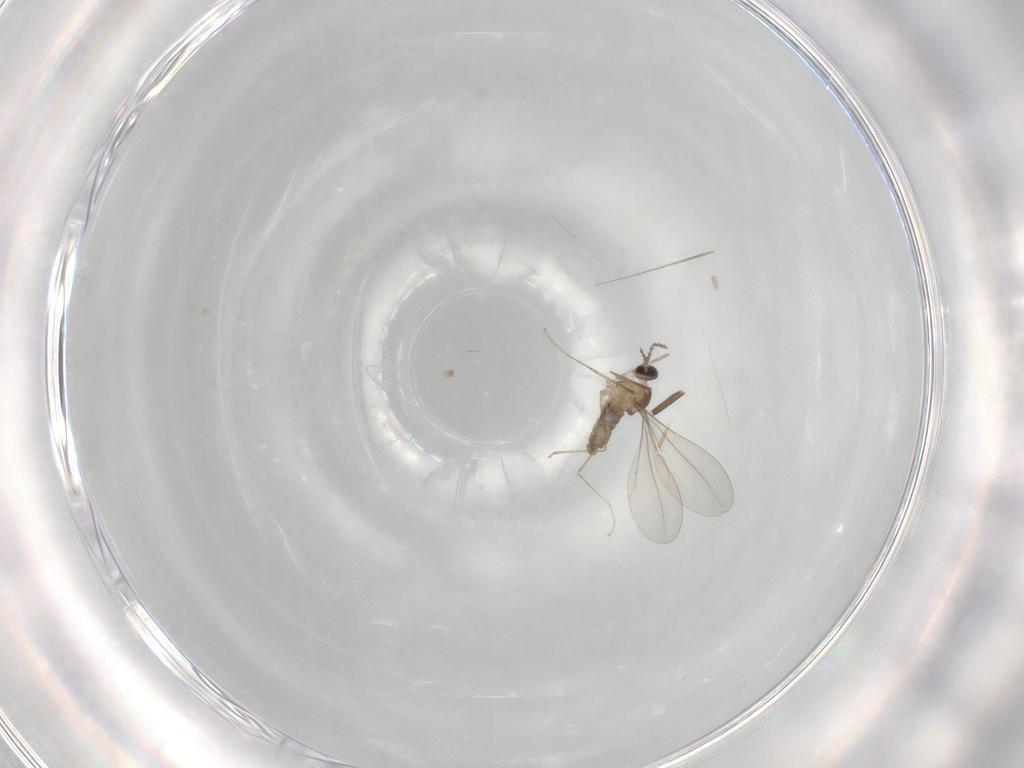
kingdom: Animalia
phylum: Arthropoda
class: Insecta
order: Diptera
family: Cecidomyiidae
